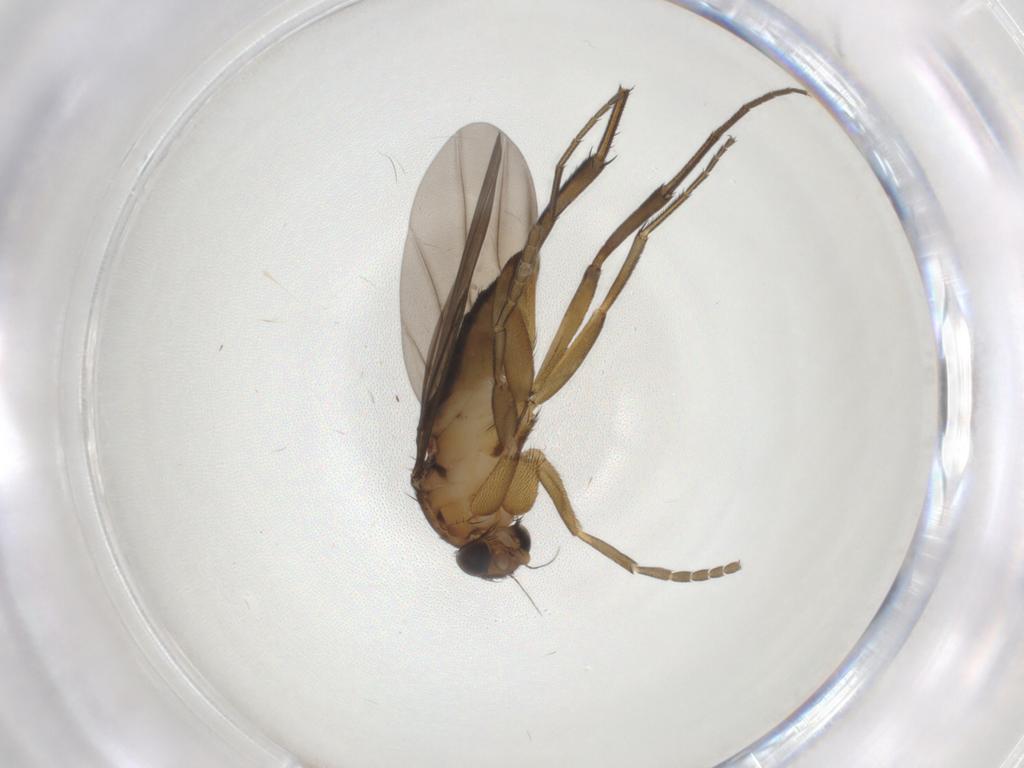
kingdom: Animalia
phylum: Arthropoda
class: Insecta
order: Diptera
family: Phoridae
